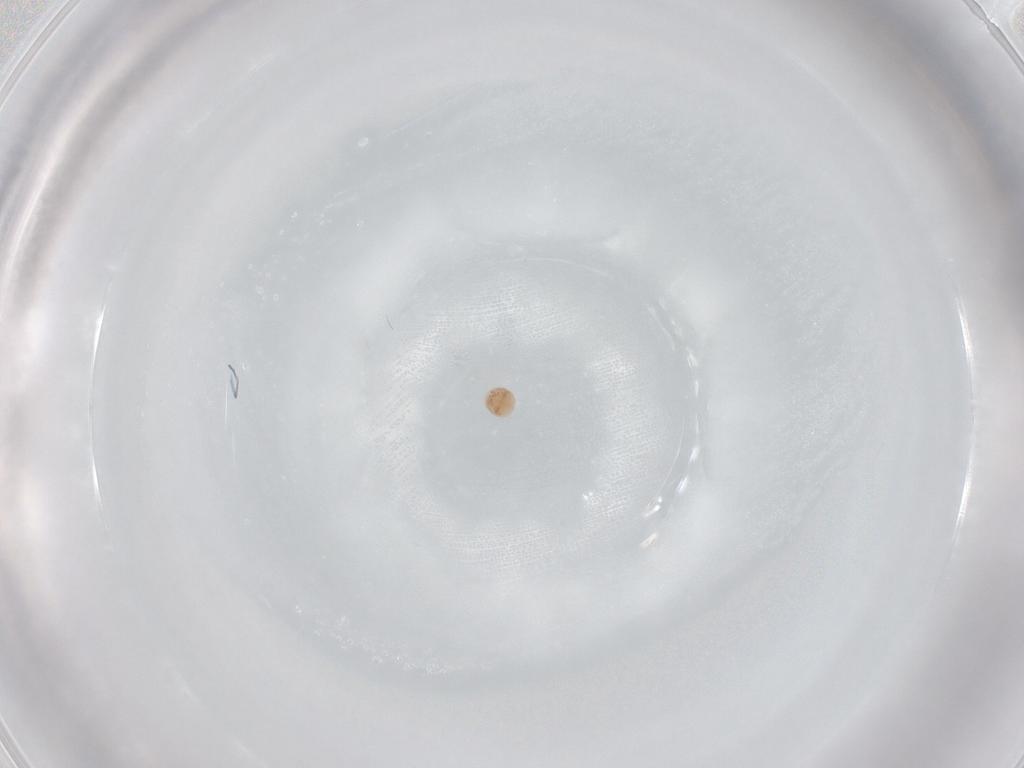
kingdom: Animalia
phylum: Arthropoda
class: Arachnida
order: Trombidiformes
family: Scutacaridae
